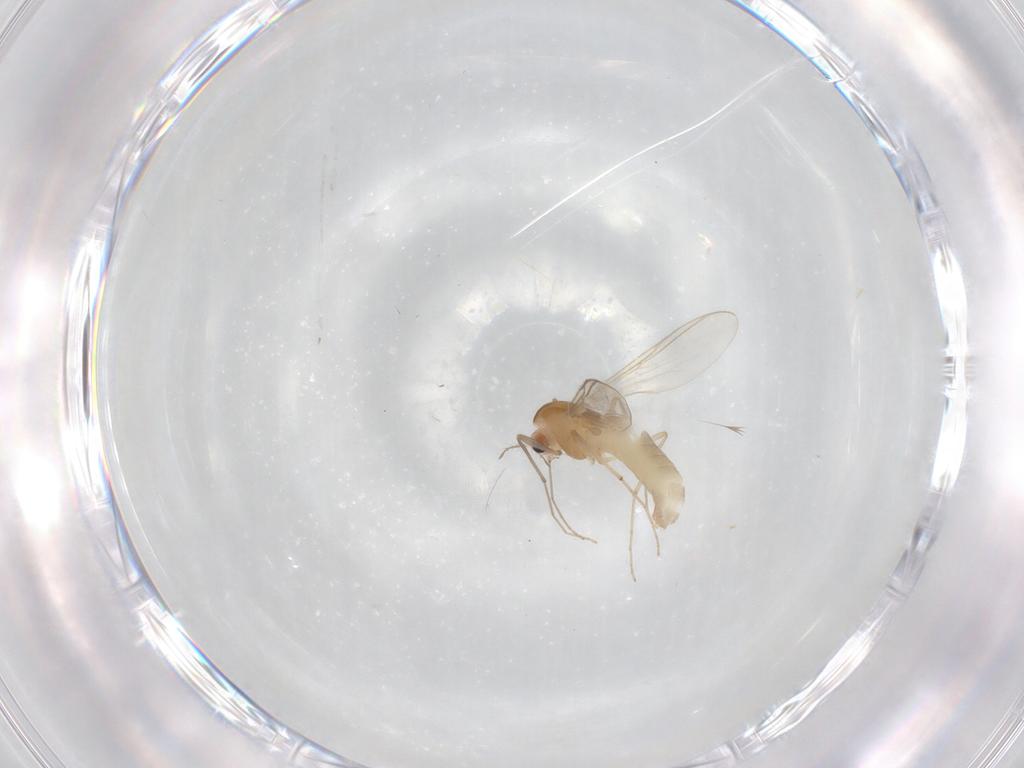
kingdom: Animalia
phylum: Arthropoda
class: Insecta
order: Diptera
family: Chironomidae
